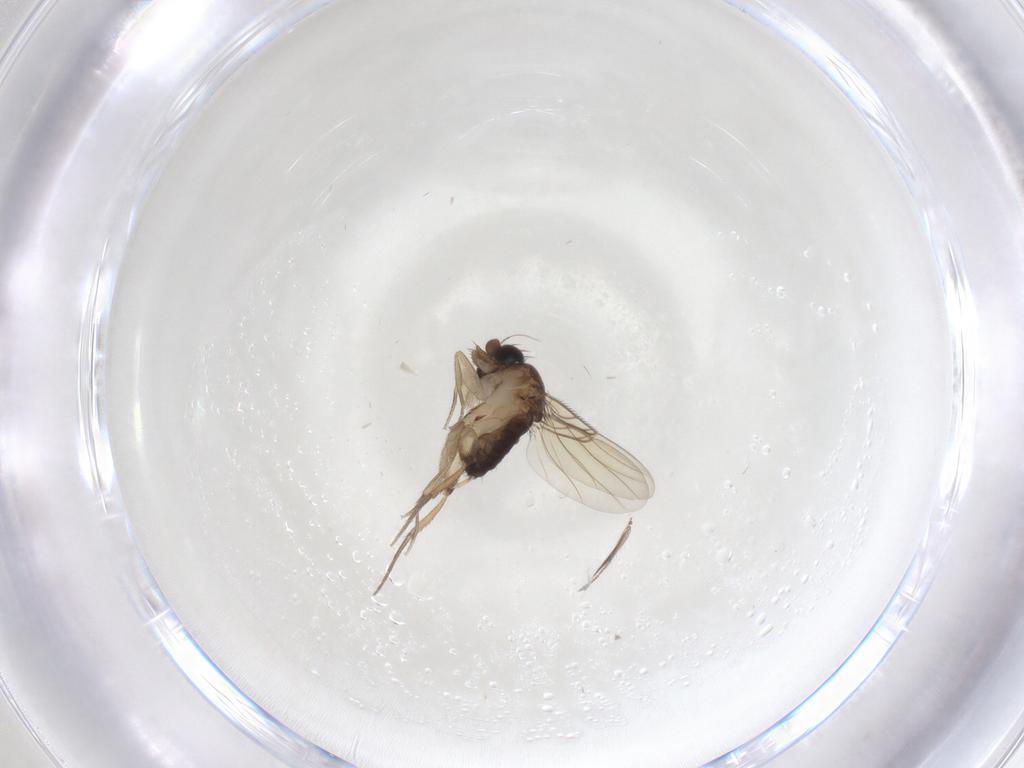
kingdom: Animalia
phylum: Arthropoda
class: Insecta
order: Diptera
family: Phoridae
